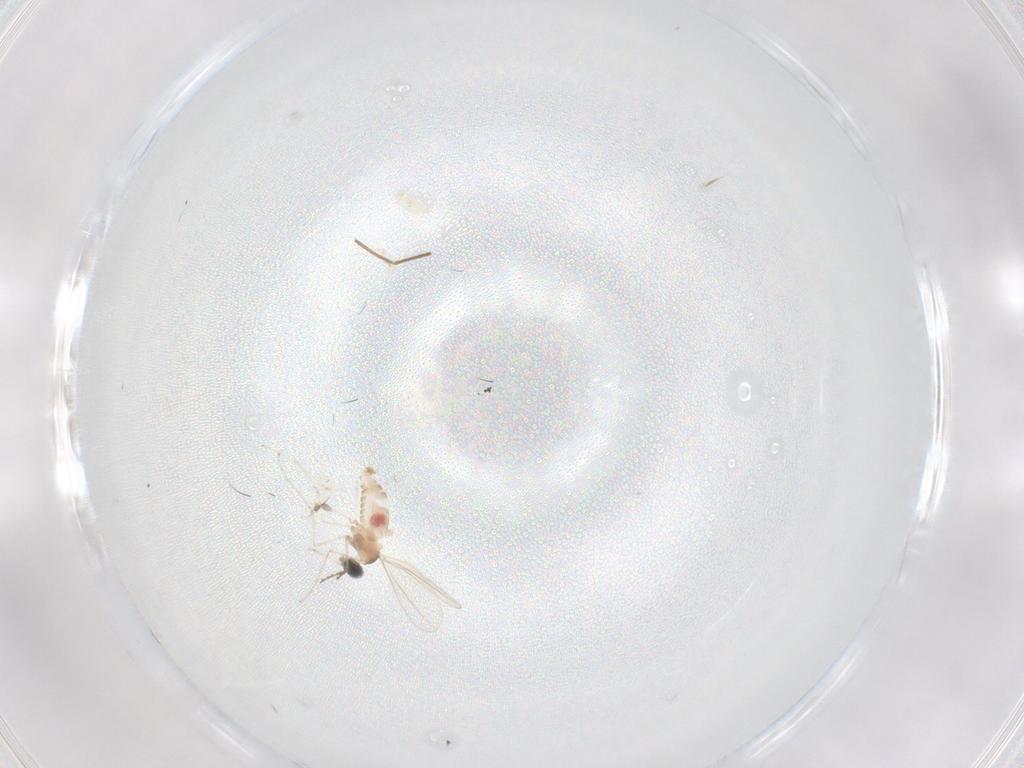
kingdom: Animalia
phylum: Arthropoda
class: Insecta
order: Diptera
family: Cecidomyiidae
